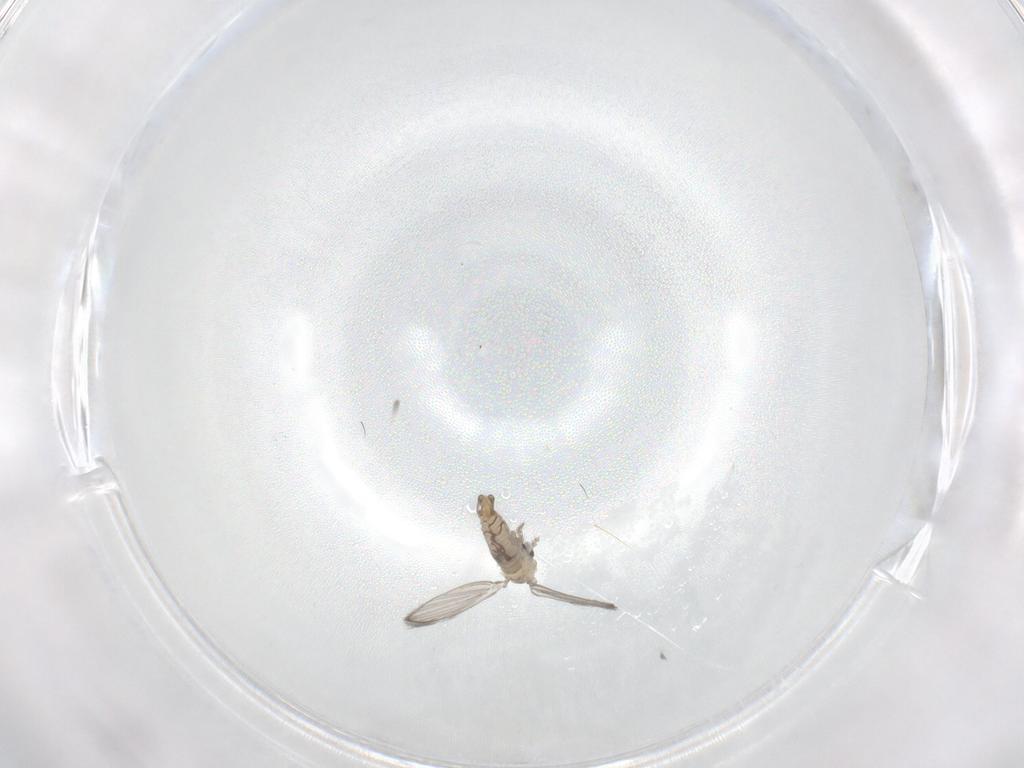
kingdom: Animalia
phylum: Arthropoda
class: Insecta
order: Diptera
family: Psychodidae
